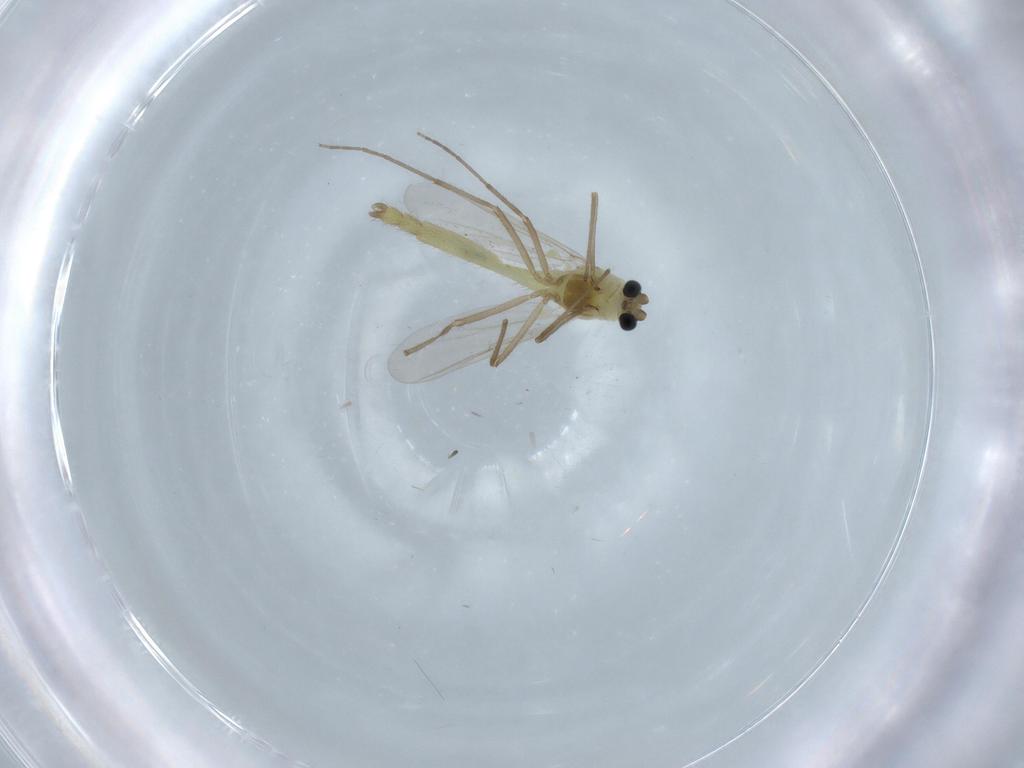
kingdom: Animalia
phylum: Arthropoda
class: Insecta
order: Diptera
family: Chironomidae
